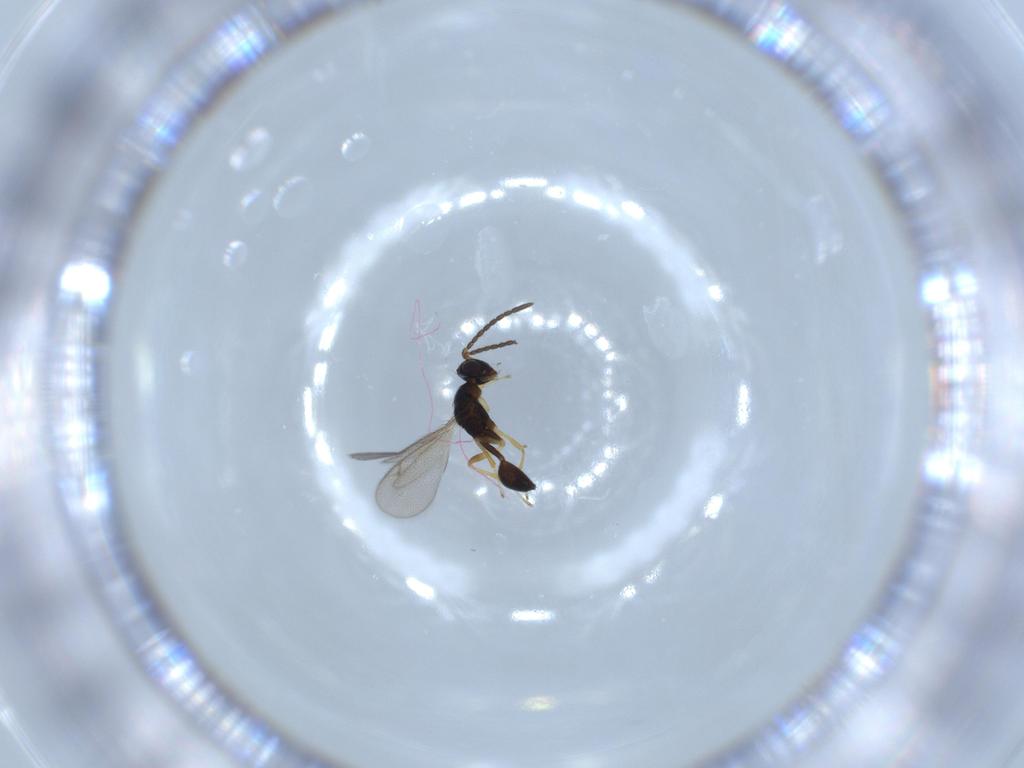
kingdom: Animalia
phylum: Arthropoda
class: Insecta
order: Hymenoptera
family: Diparidae
